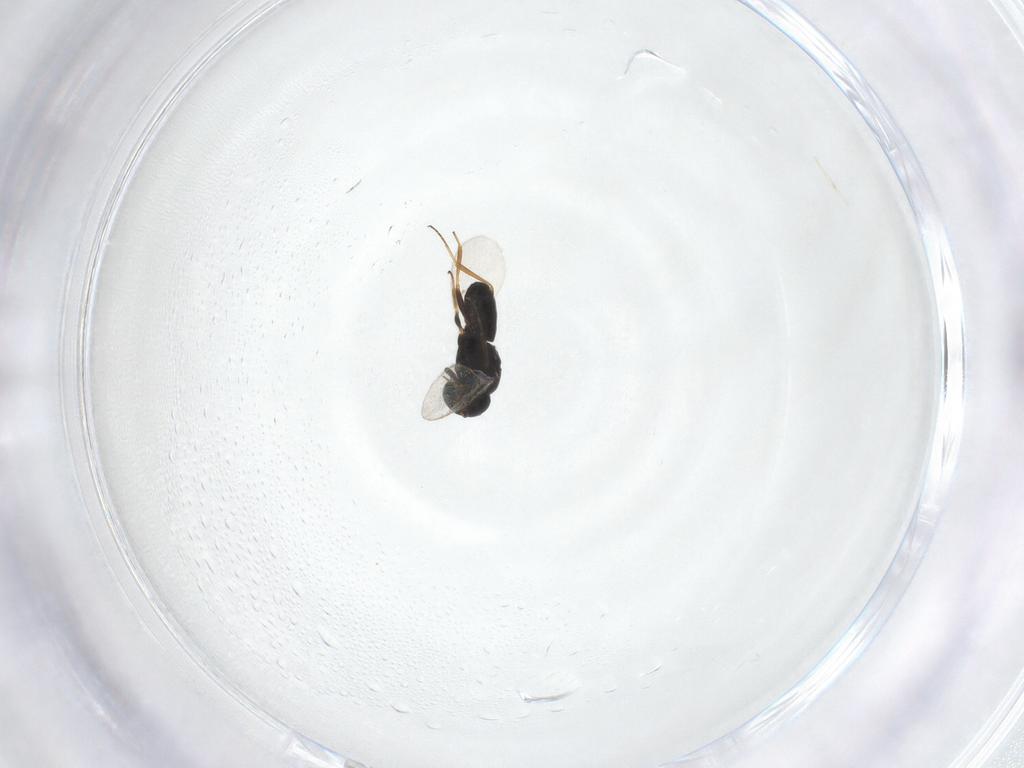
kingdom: Animalia
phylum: Arthropoda
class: Insecta
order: Hymenoptera
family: Scelionidae
